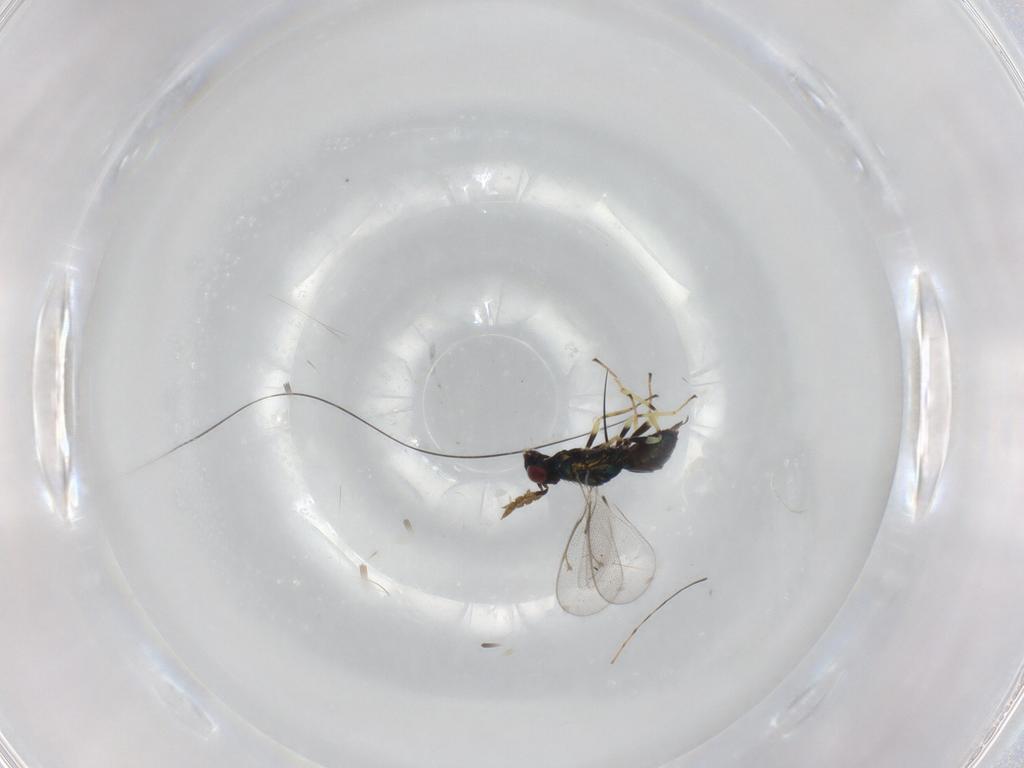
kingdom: Animalia
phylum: Arthropoda
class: Insecta
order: Hymenoptera
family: Eulophidae
